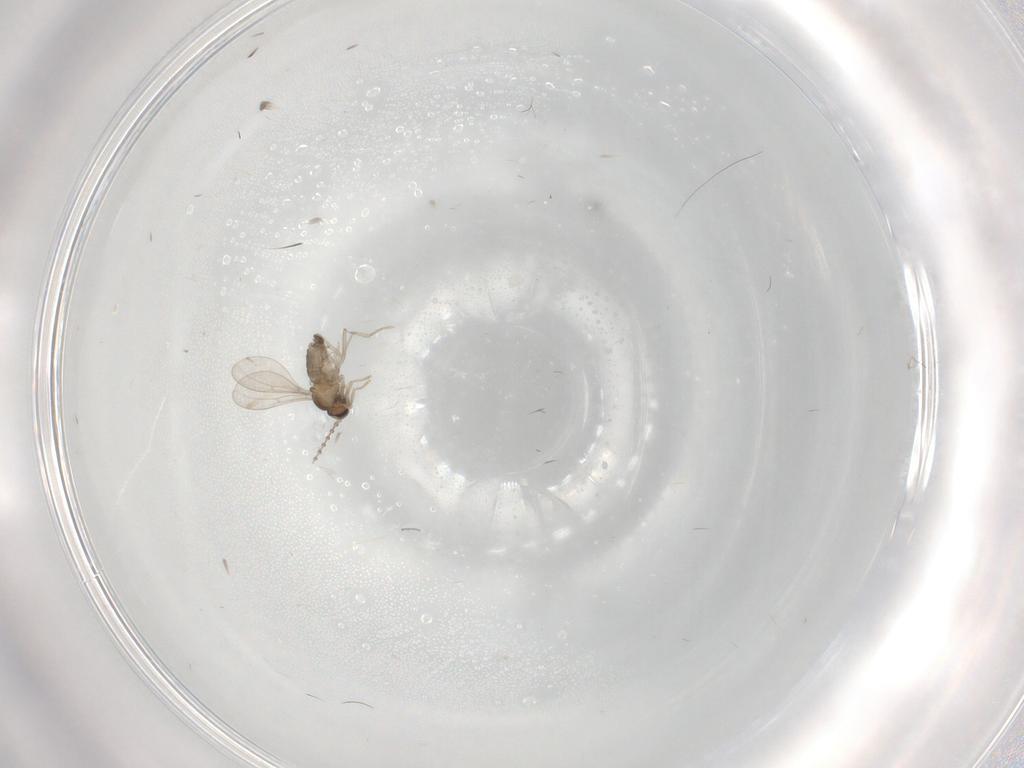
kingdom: Animalia
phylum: Arthropoda
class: Insecta
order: Diptera
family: Cecidomyiidae
